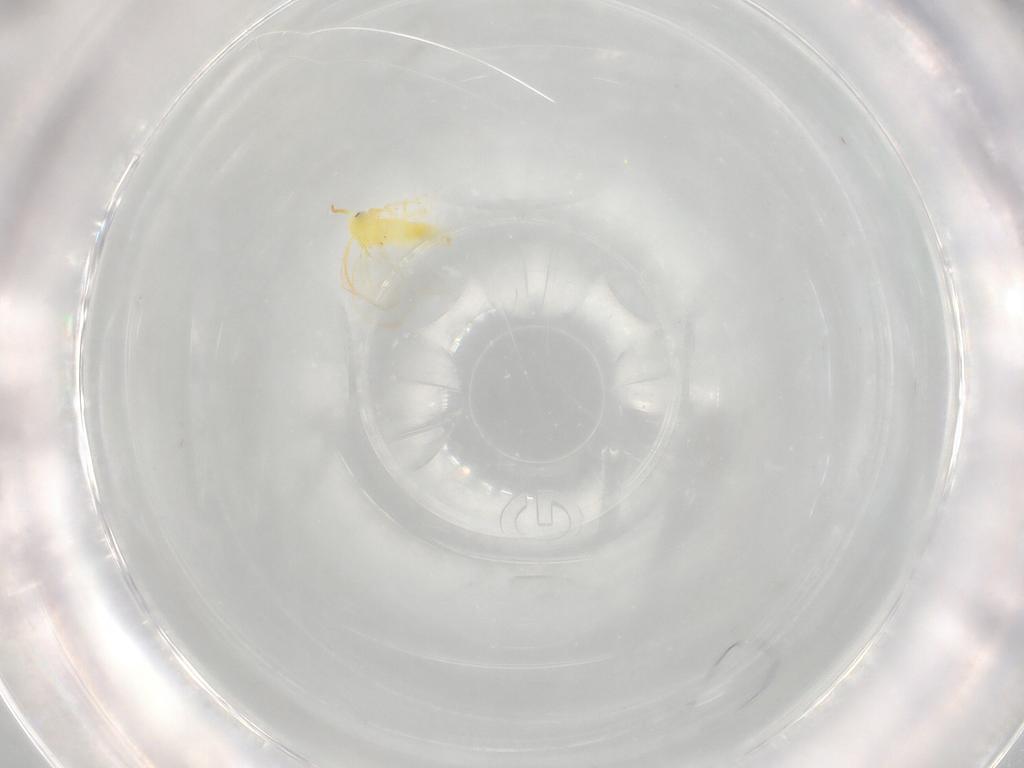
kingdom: Animalia
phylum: Arthropoda
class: Insecta
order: Hemiptera
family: Aleyrodidae
